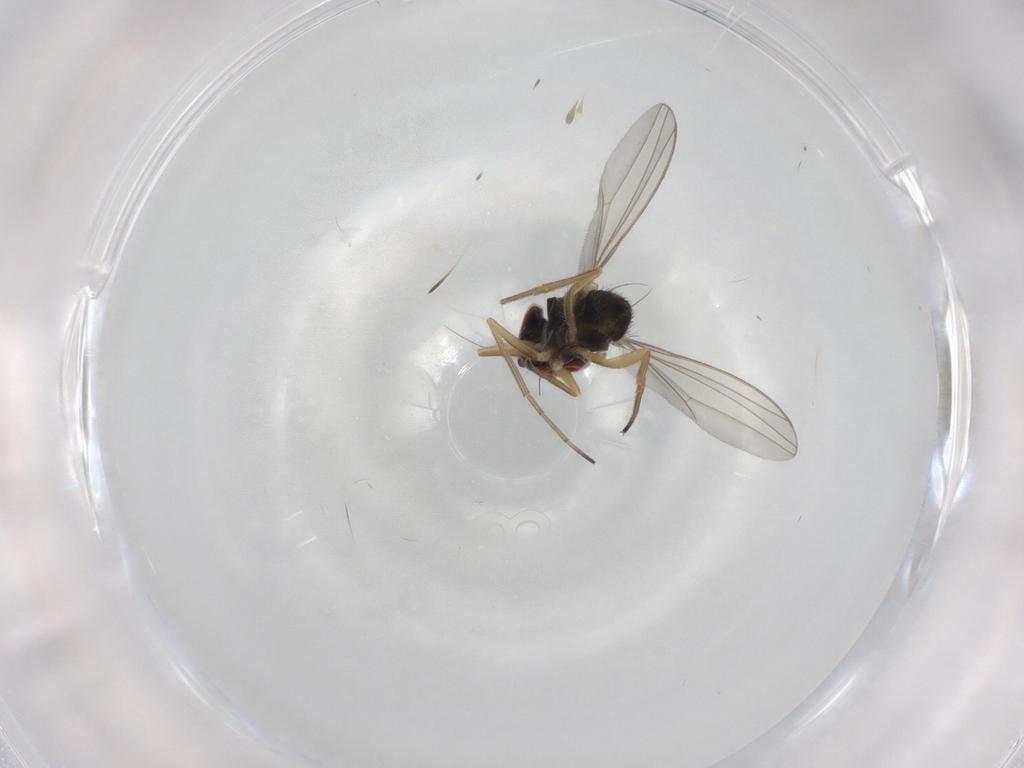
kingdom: Animalia
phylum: Arthropoda
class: Insecta
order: Diptera
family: Dolichopodidae
